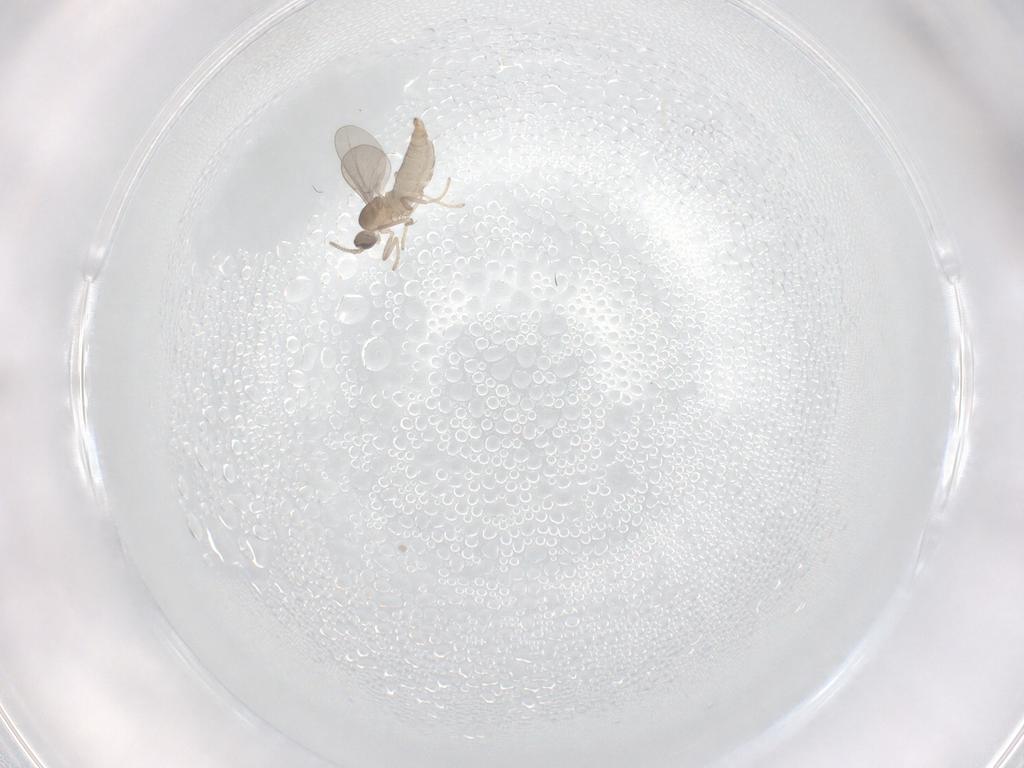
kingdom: Animalia
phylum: Arthropoda
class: Insecta
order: Diptera
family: Cecidomyiidae
